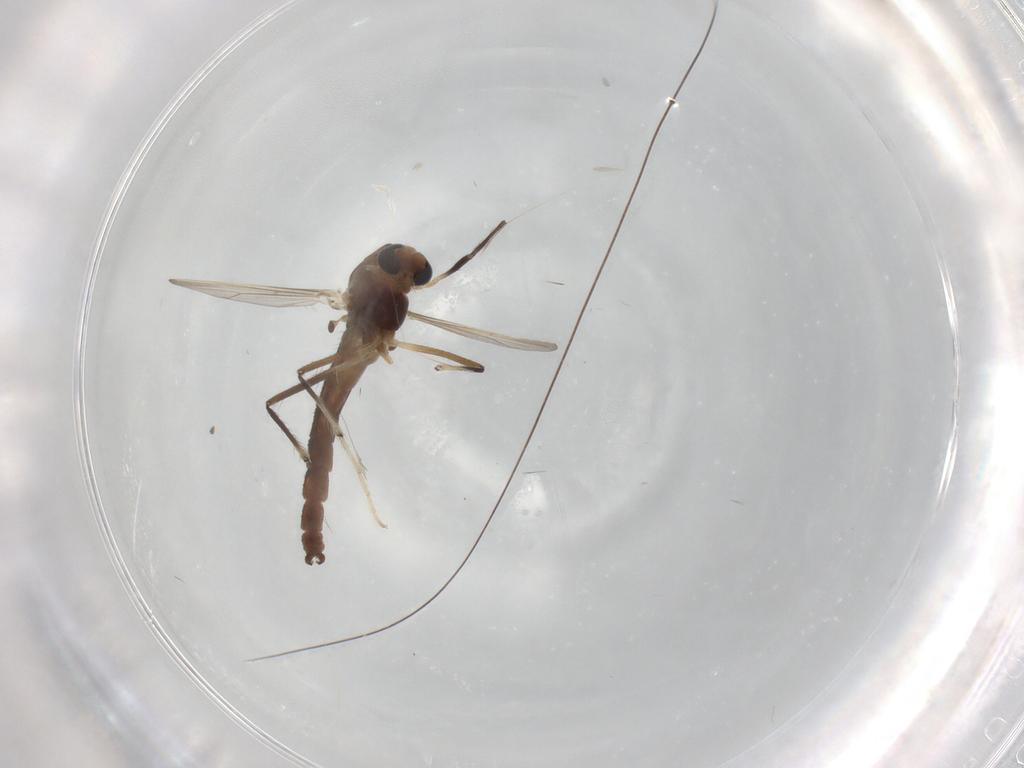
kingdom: Animalia
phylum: Arthropoda
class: Insecta
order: Diptera
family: Chironomidae
